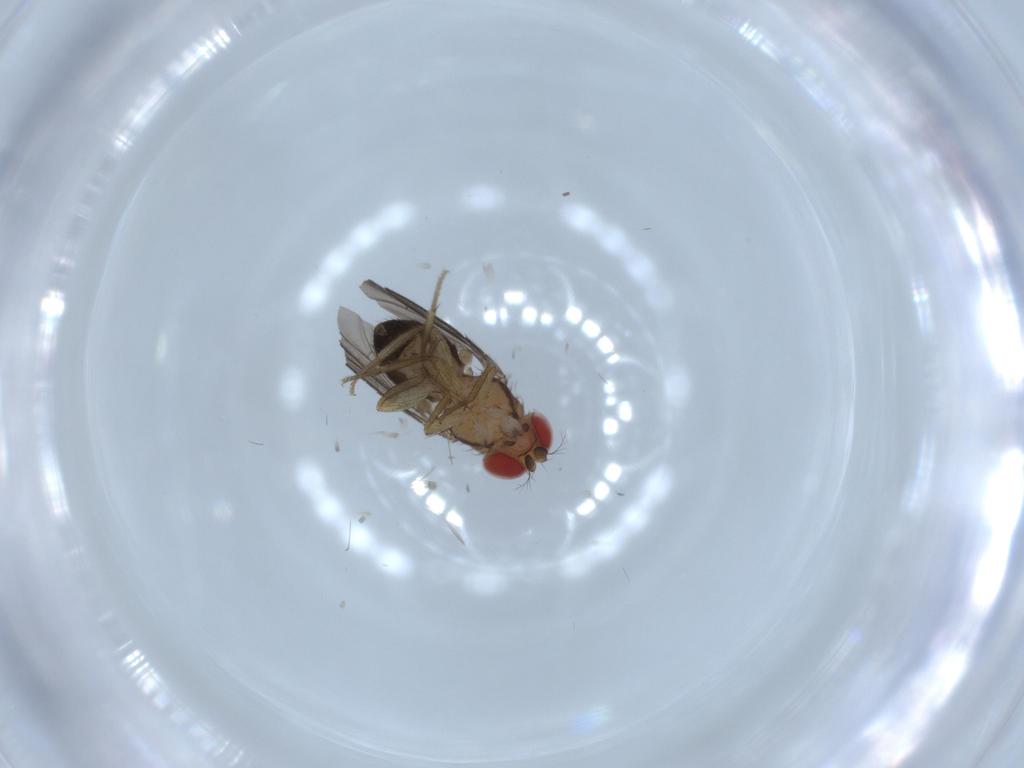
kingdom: Animalia
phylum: Arthropoda
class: Insecta
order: Diptera
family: Drosophilidae
